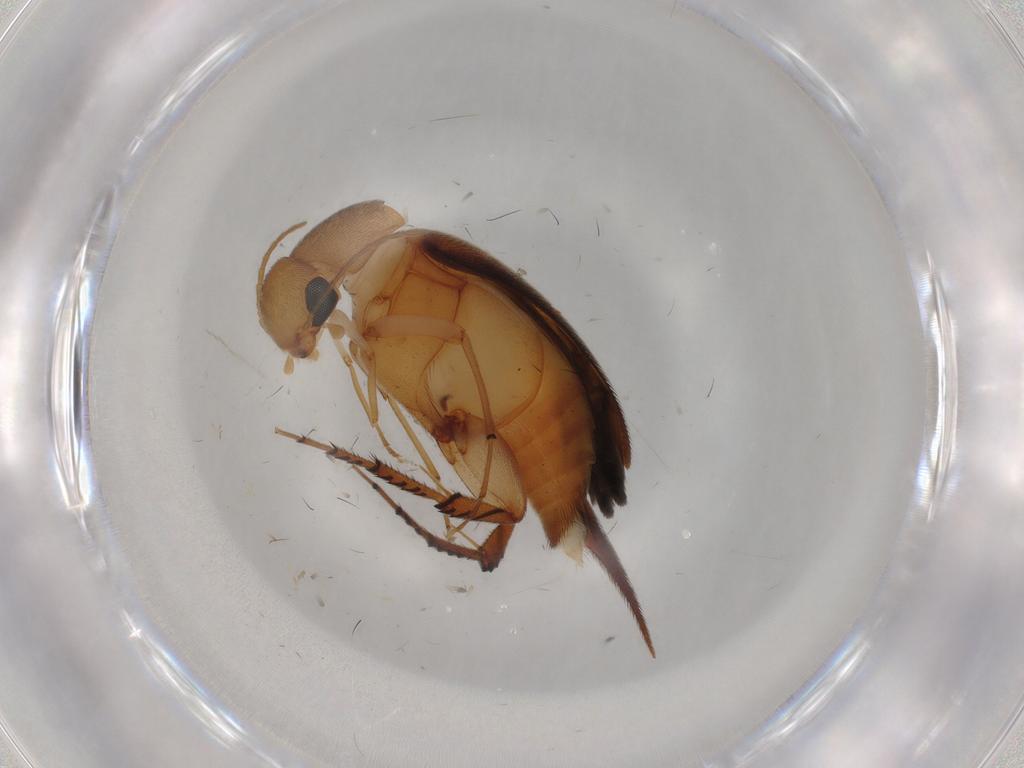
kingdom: Animalia
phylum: Arthropoda
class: Insecta
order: Coleoptera
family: Mordellidae
